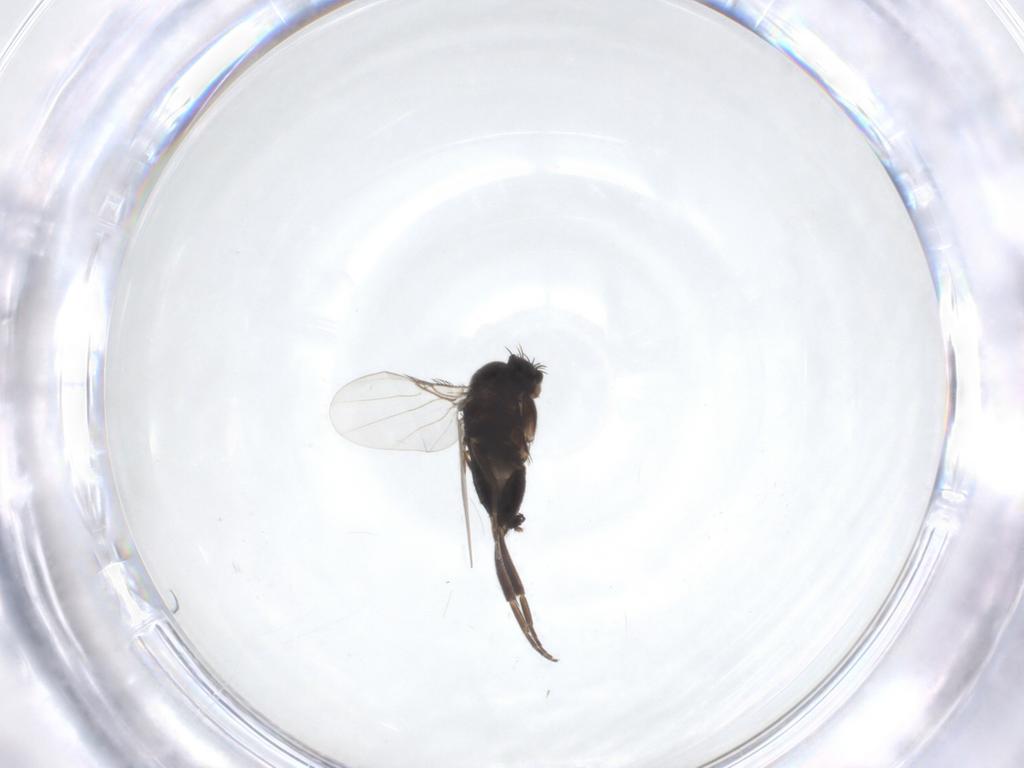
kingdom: Animalia
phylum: Arthropoda
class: Insecta
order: Diptera
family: Phoridae
